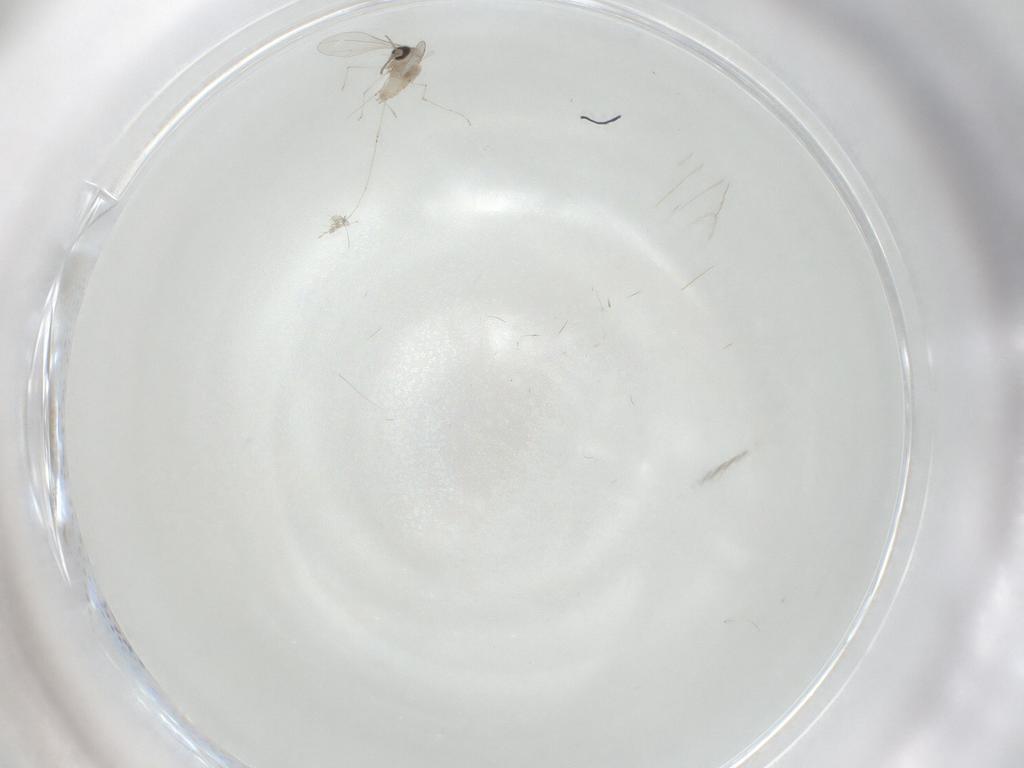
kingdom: Animalia
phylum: Arthropoda
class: Insecta
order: Diptera
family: Cecidomyiidae
